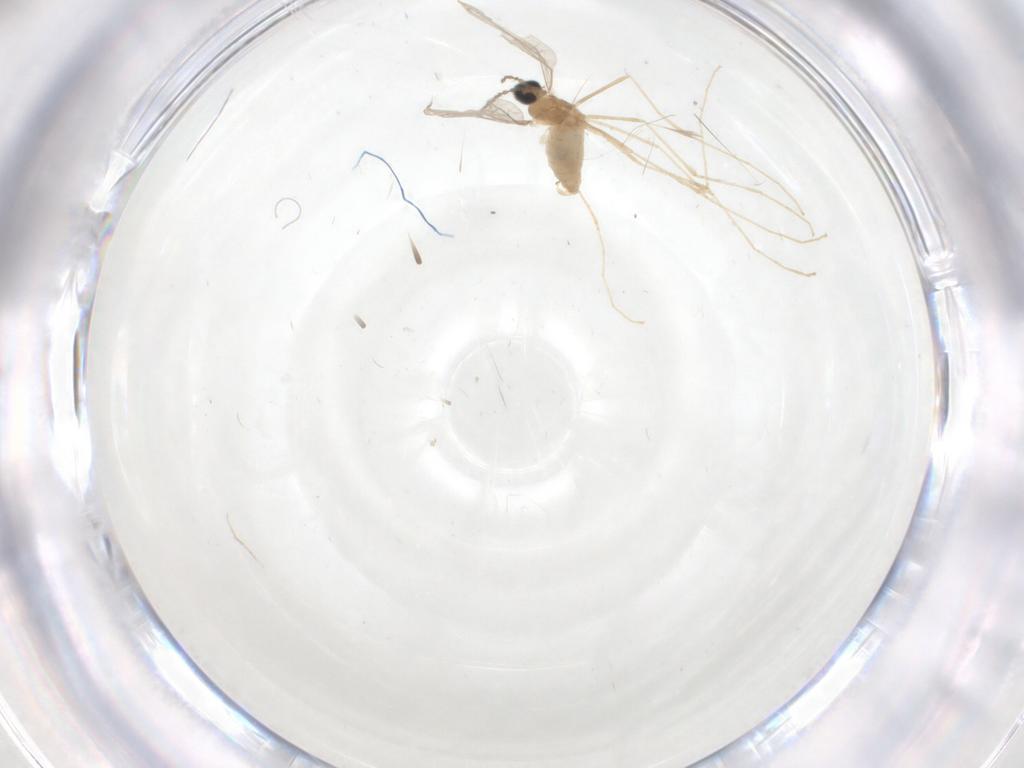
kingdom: Animalia
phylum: Arthropoda
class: Insecta
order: Diptera
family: Cecidomyiidae
